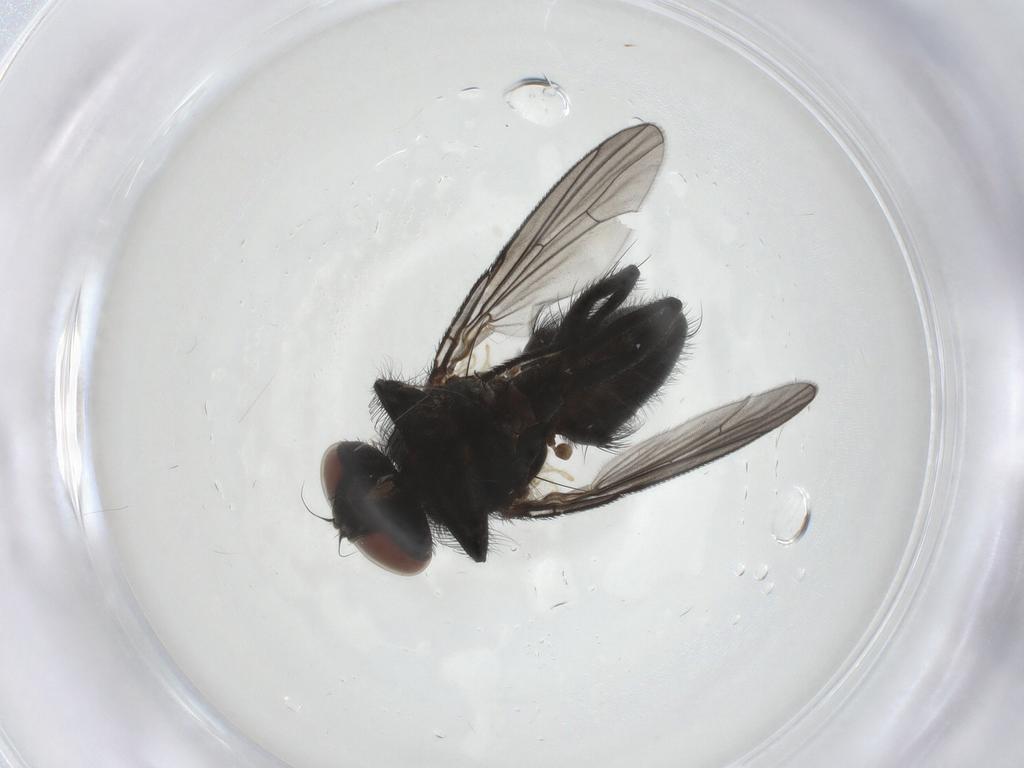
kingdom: Animalia
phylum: Arthropoda
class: Insecta
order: Diptera
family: Muscidae
